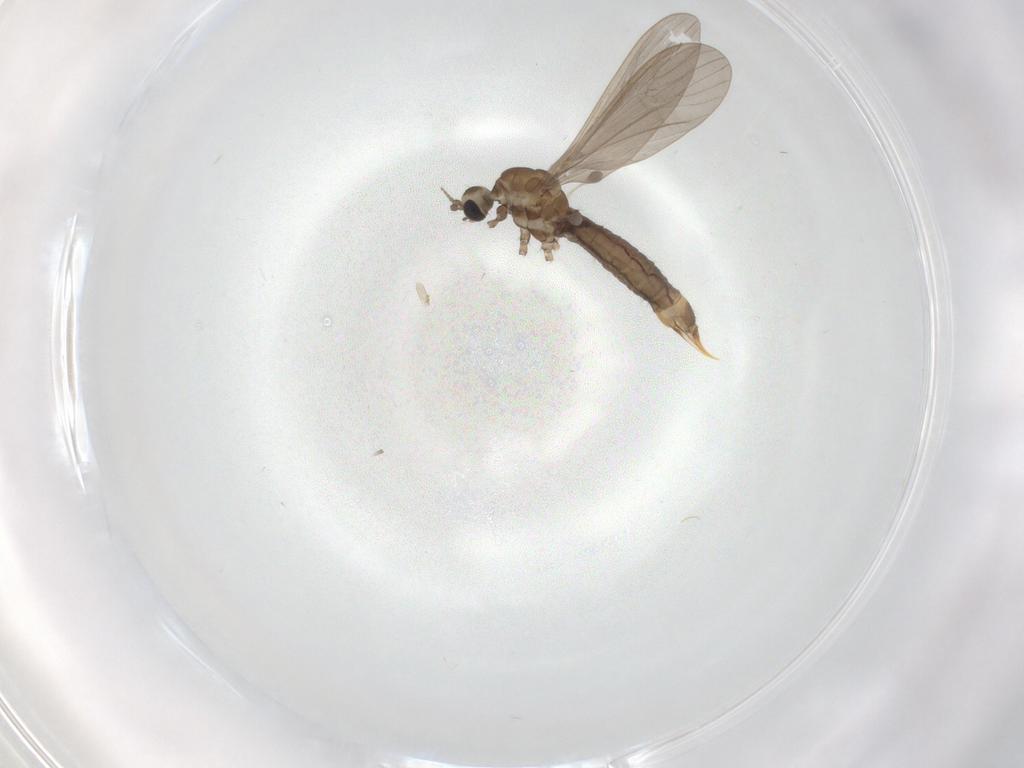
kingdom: Animalia
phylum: Arthropoda
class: Insecta
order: Diptera
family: Limoniidae
